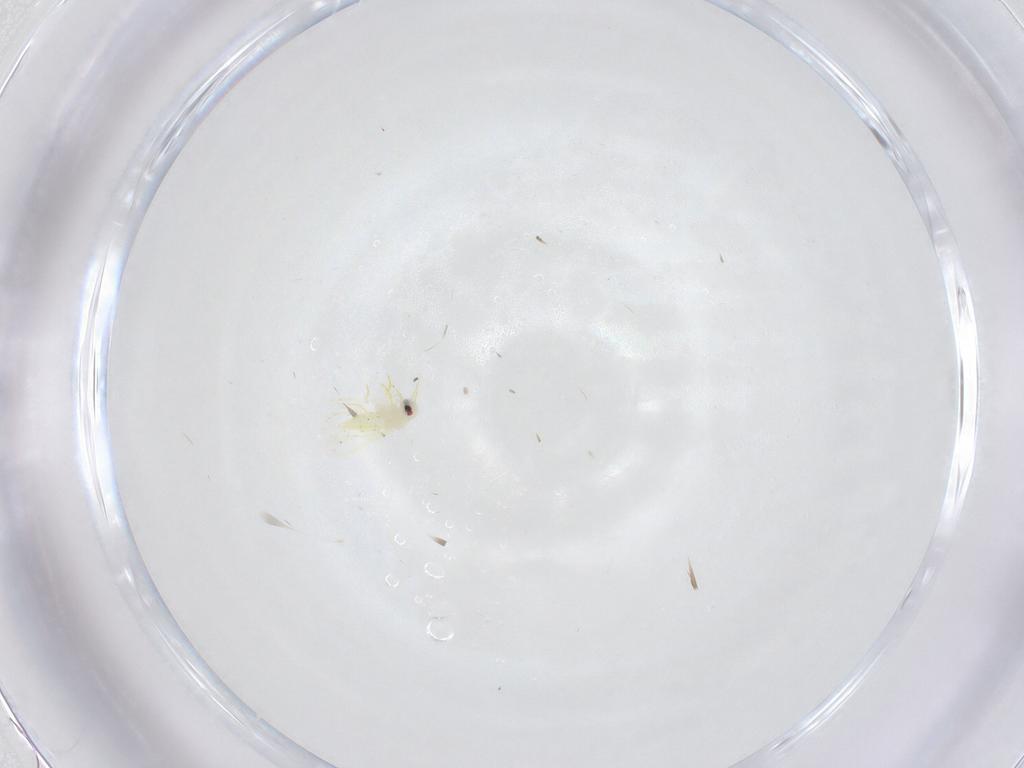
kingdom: Animalia
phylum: Arthropoda
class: Insecta
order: Diptera
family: Limoniidae
